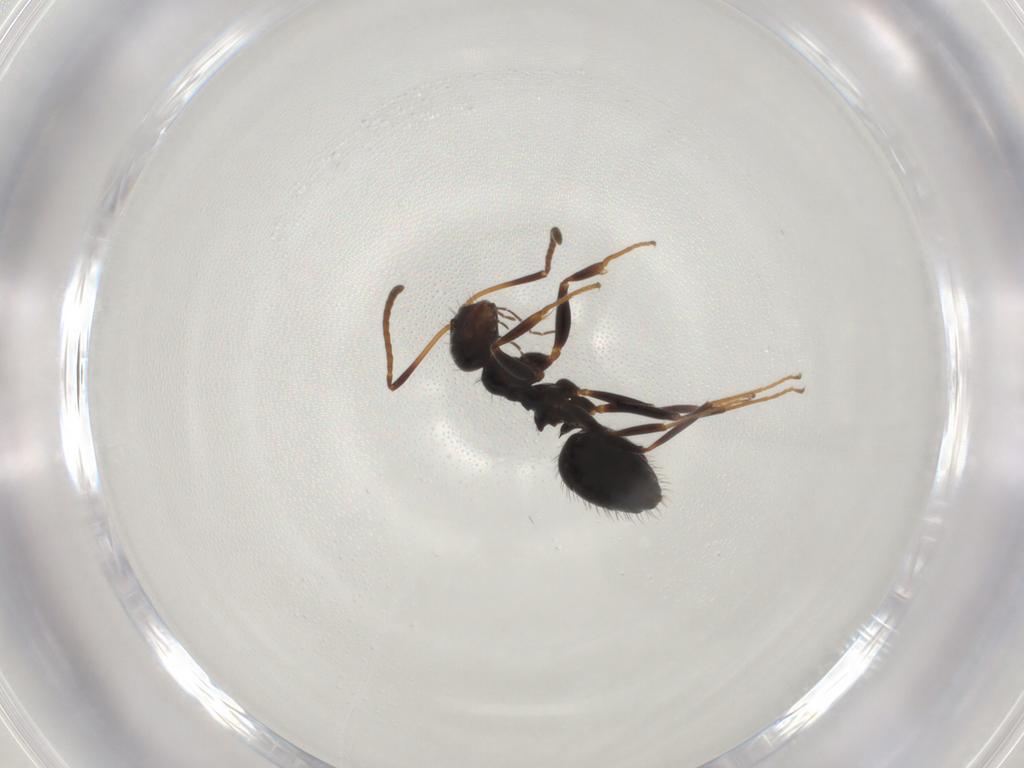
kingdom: Animalia
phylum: Arthropoda
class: Insecta
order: Hymenoptera
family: Formicidae
